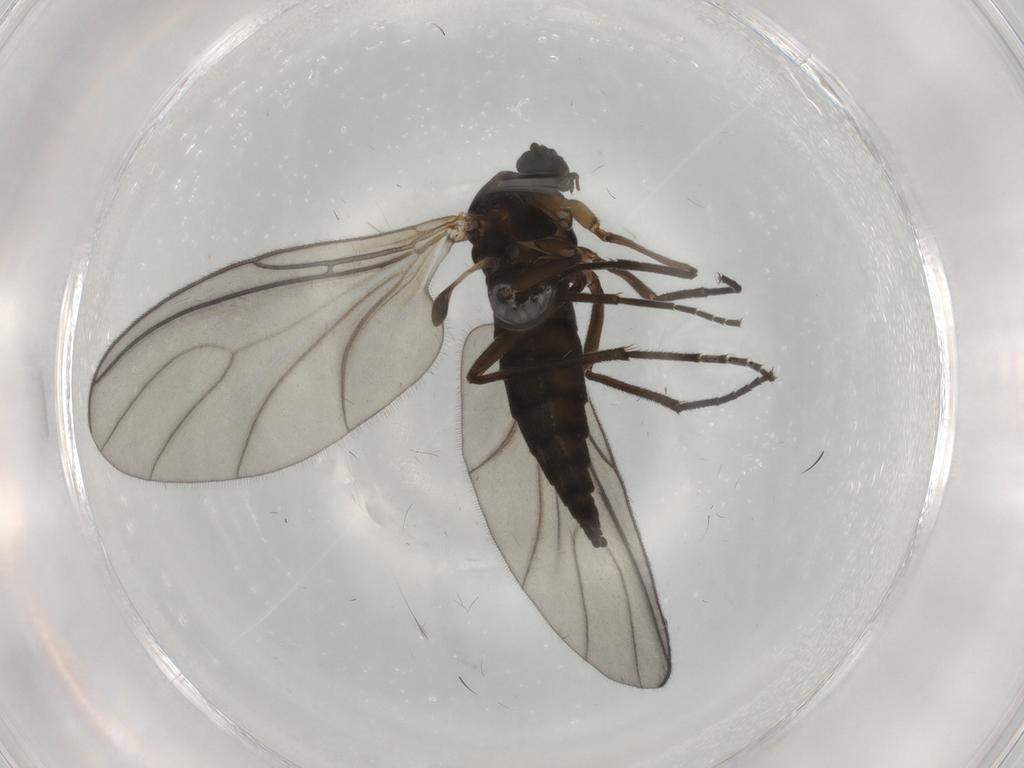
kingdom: Animalia
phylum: Arthropoda
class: Insecta
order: Diptera
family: Sciaridae
